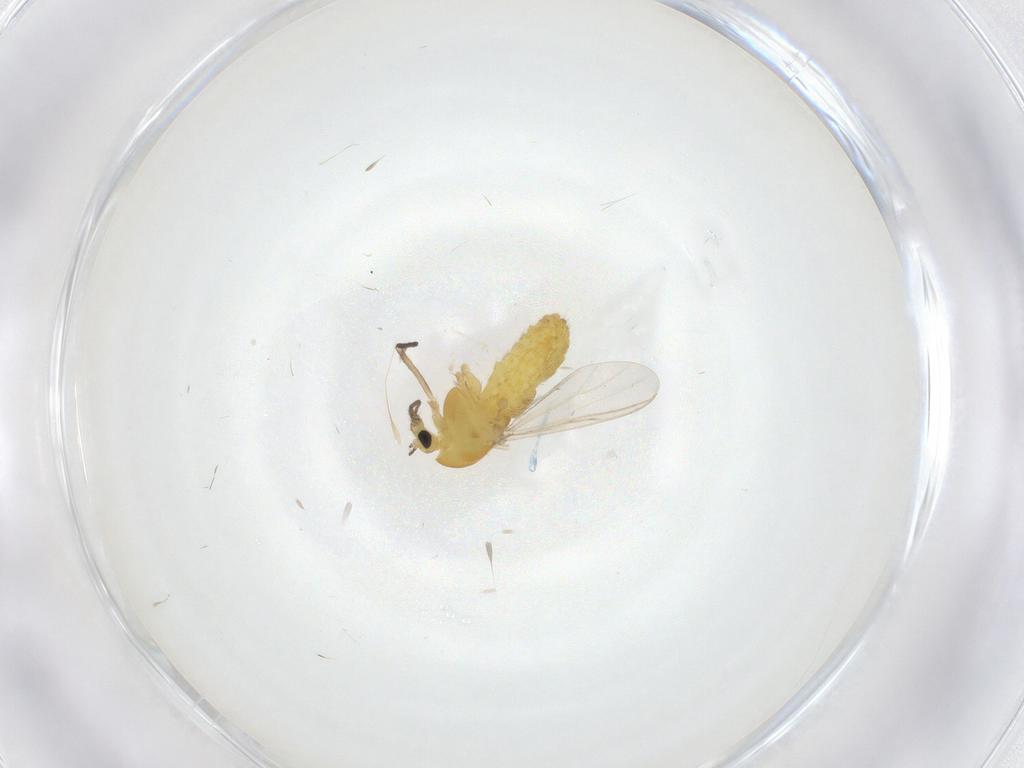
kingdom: Animalia
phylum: Arthropoda
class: Insecta
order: Diptera
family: Chironomidae
